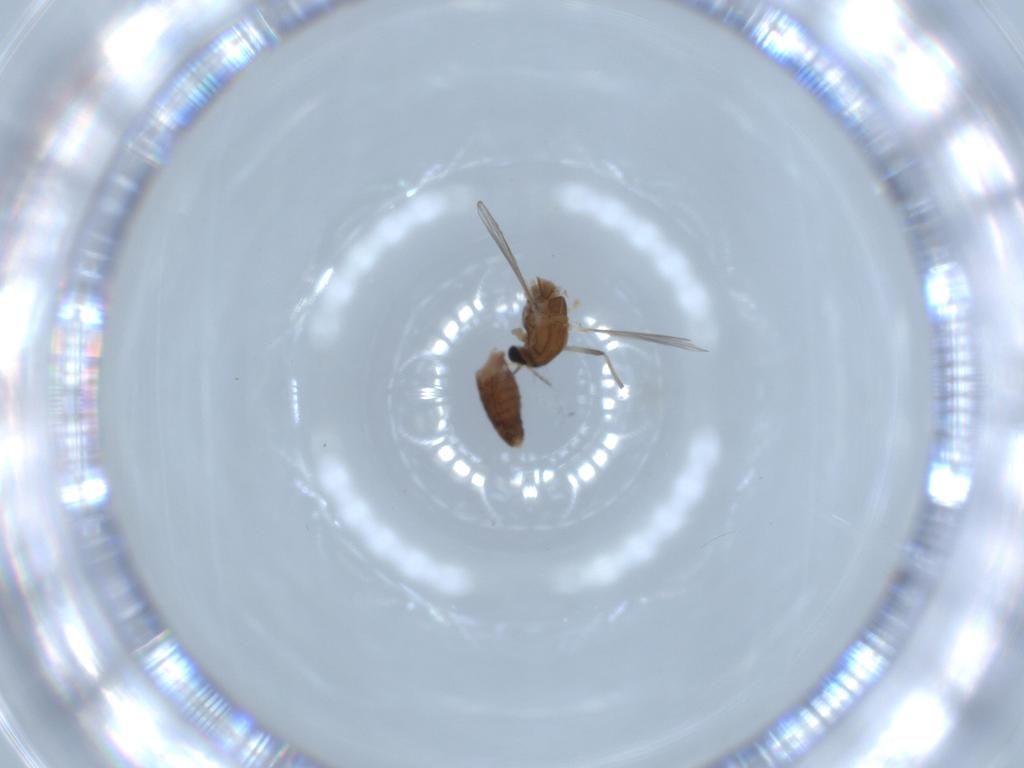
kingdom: Animalia
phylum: Arthropoda
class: Insecta
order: Diptera
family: Chironomidae
